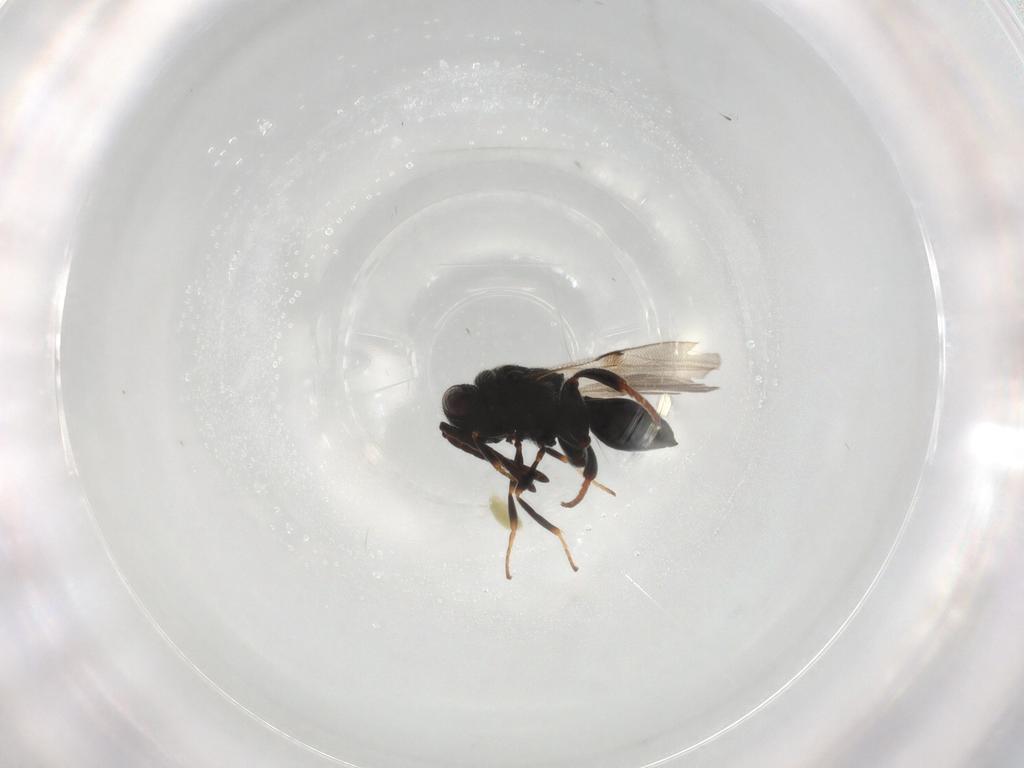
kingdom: Animalia
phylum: Arthropoda
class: Insecta
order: Hymenoptera
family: Chalcididae
